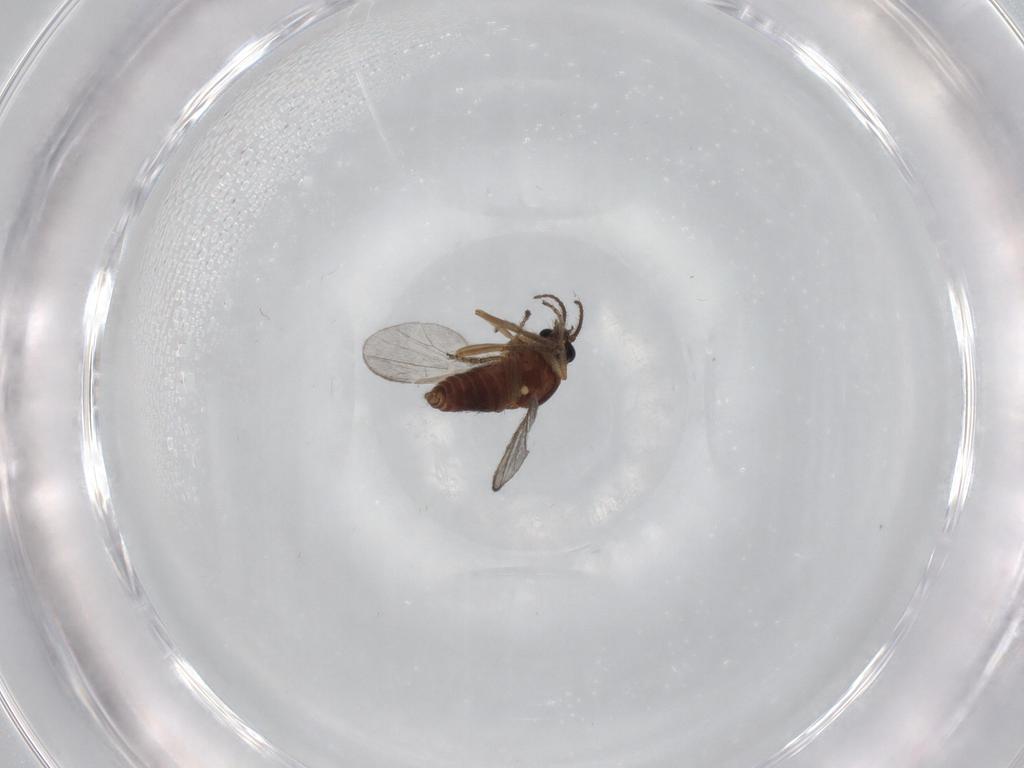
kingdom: Animalia
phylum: Arthropoda
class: Insecta
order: Diptera
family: Ceratopogonidae
